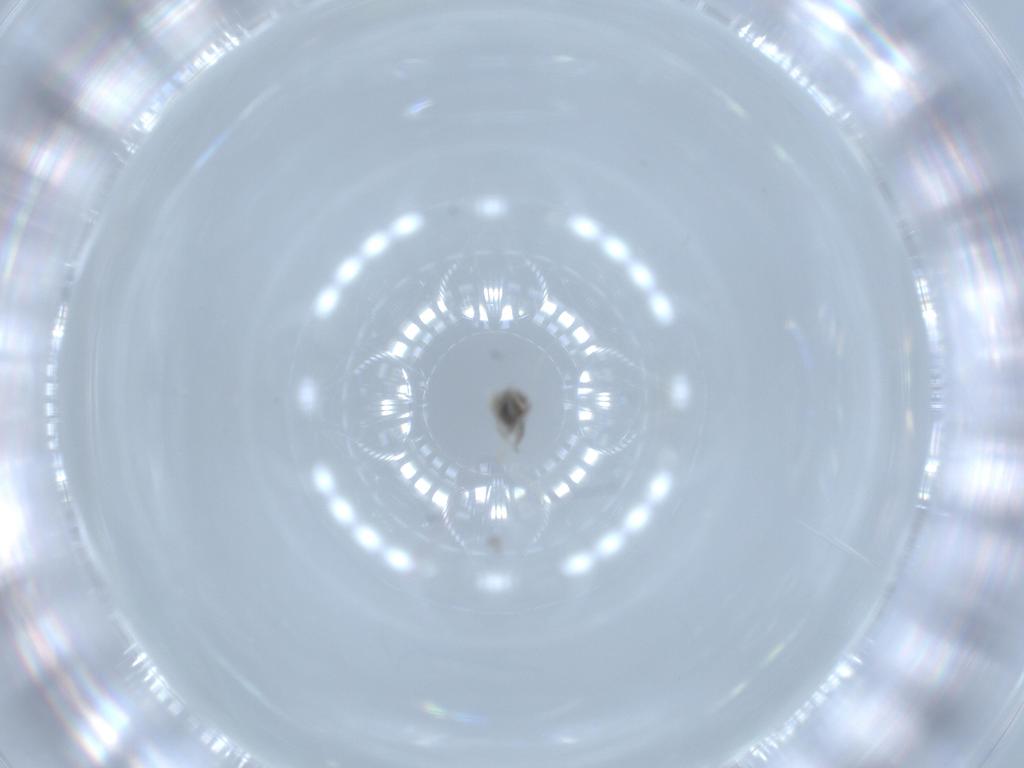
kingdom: Animalia
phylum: Arthropoda
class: Insecta
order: Diptera
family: Cecidomyiidae
